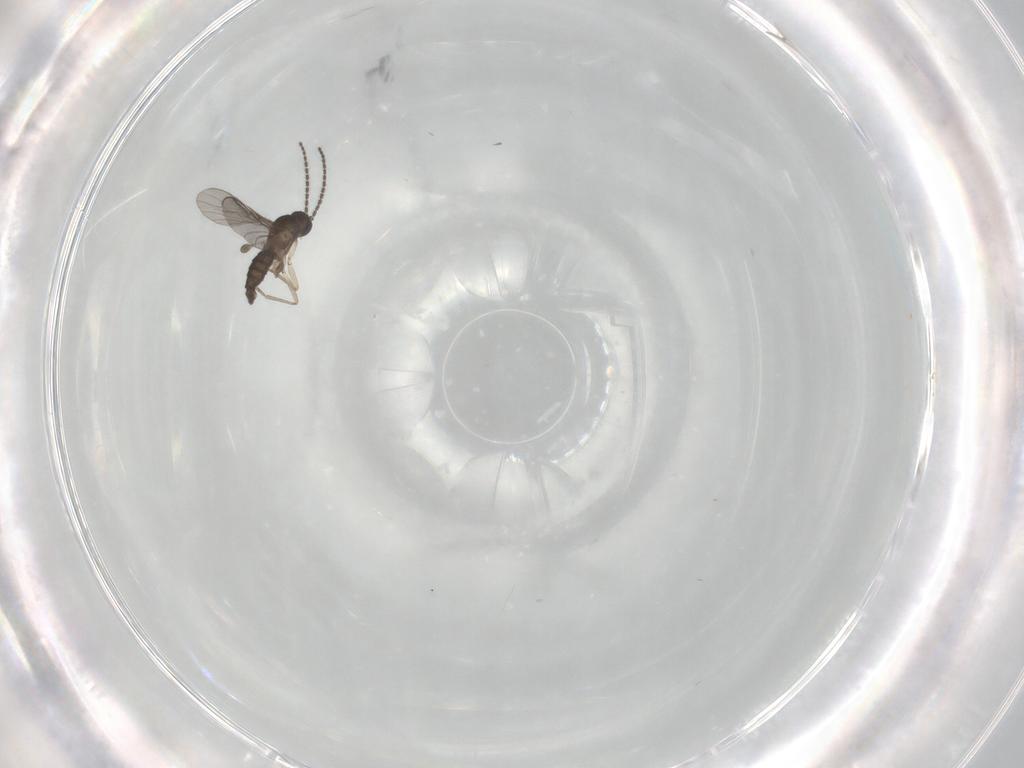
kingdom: Animalia
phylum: Arthropoda
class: Insecta
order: Diptera
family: Sciaridae
